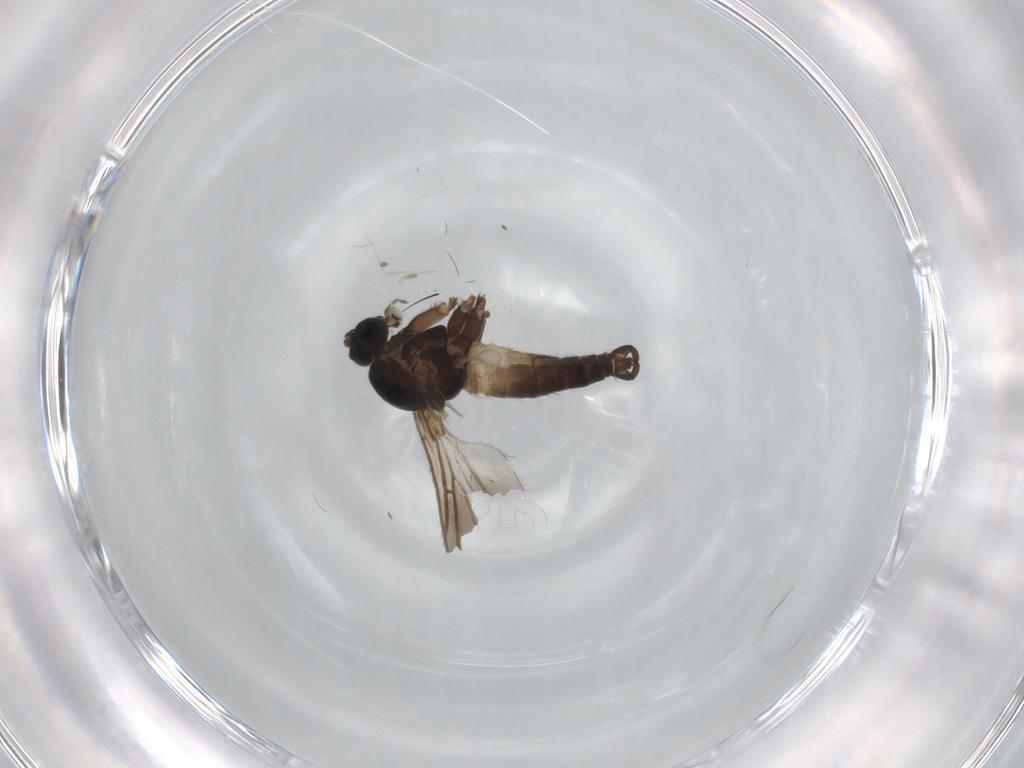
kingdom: Animalia
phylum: Arthropoda
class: Insecta
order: Diptera
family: Sciaridae
